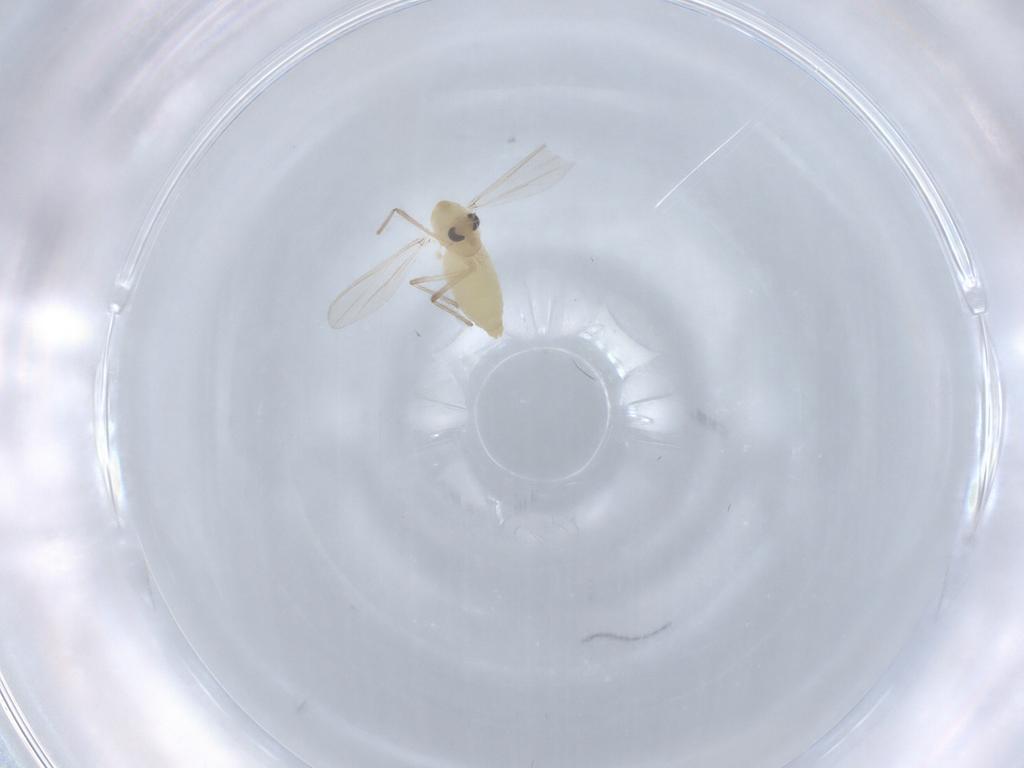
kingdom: Animalia
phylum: Arthropoda
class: Insecta
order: Diptera
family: Chironomidae
